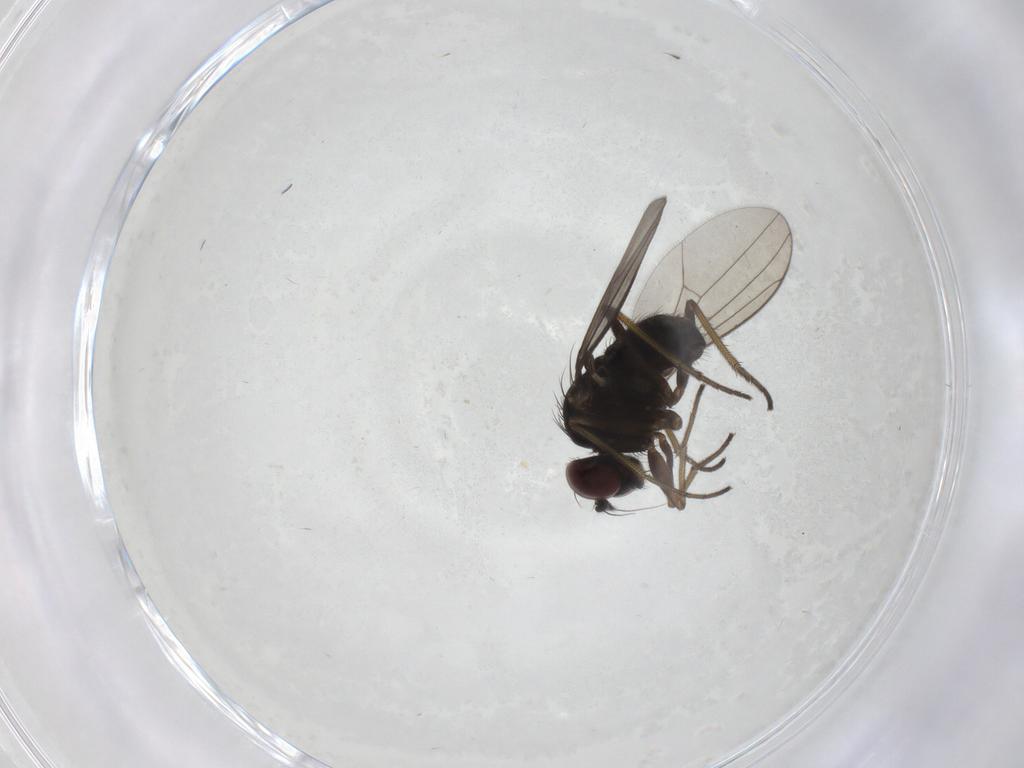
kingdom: Animalia
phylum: Arthropoda
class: Insecta
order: Diptera
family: Dolichopodidae
